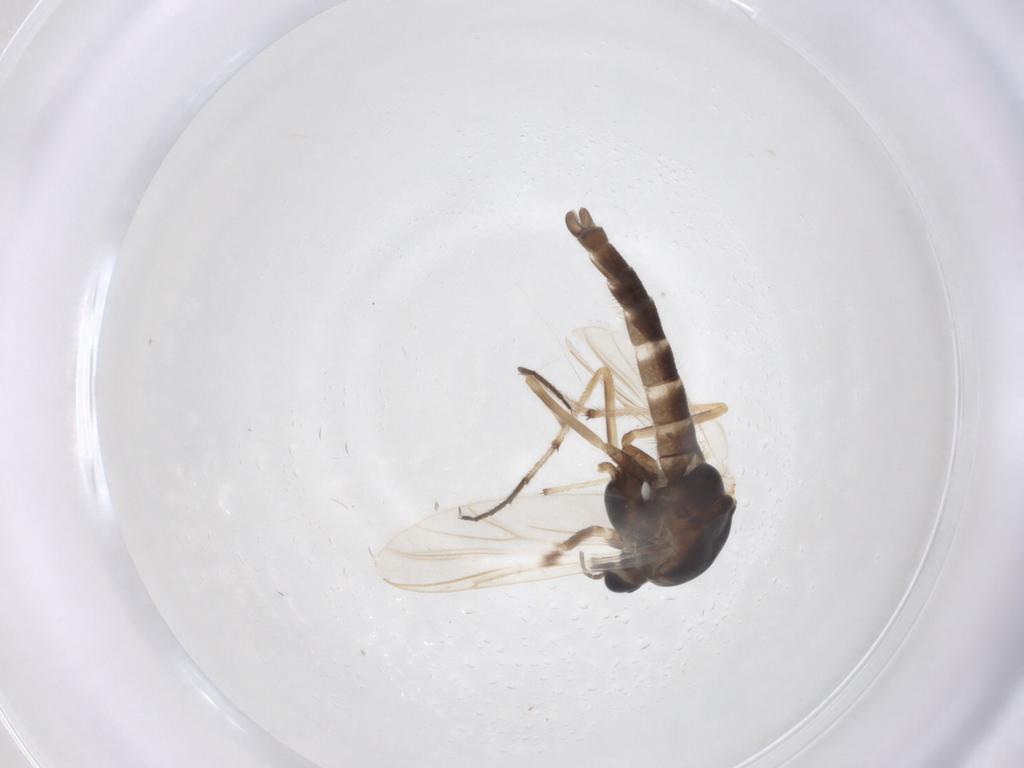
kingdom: Animalia
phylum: Arthropoda
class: Insecta
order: Diptera
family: Chironomidae
